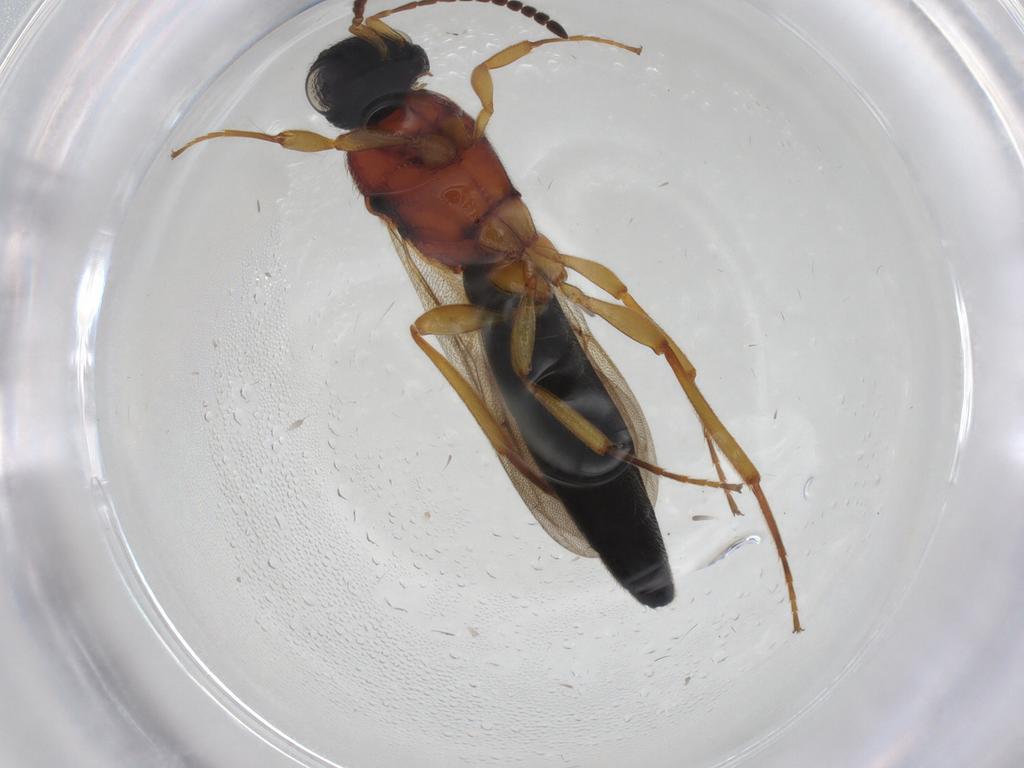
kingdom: Animalia
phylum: Arthropoda
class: Insecta
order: Hymenoptera
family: Scelionidae
